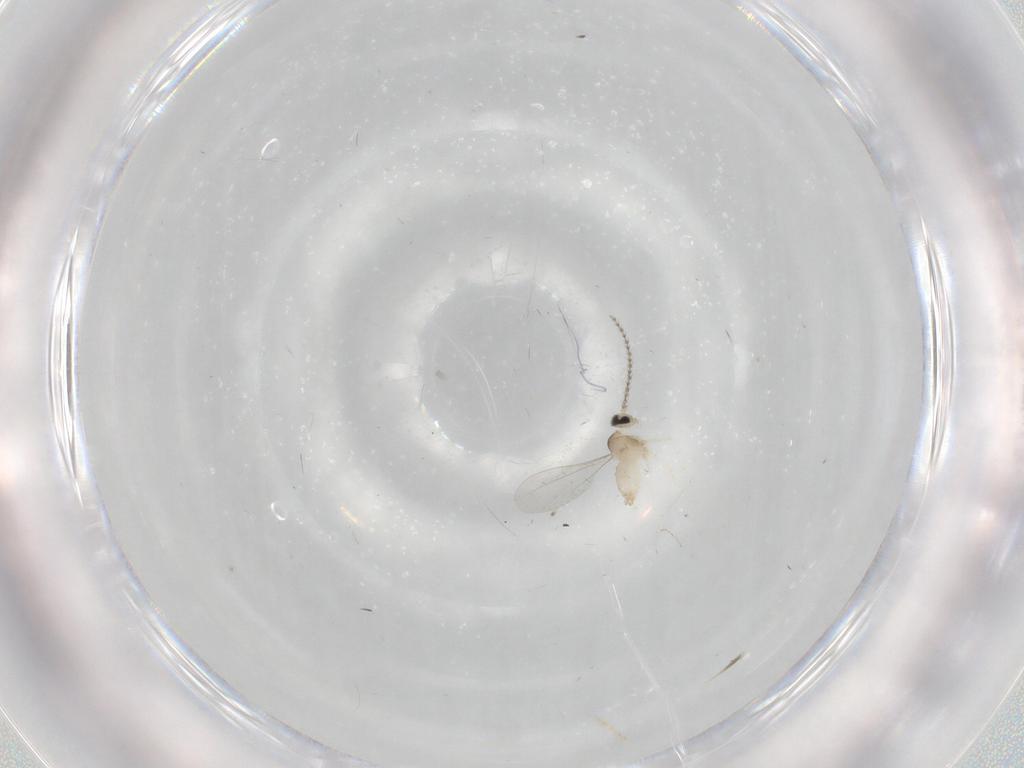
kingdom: Animalia
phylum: Arthropoda
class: Insecta
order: Diptera
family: Cecidomyiidae
